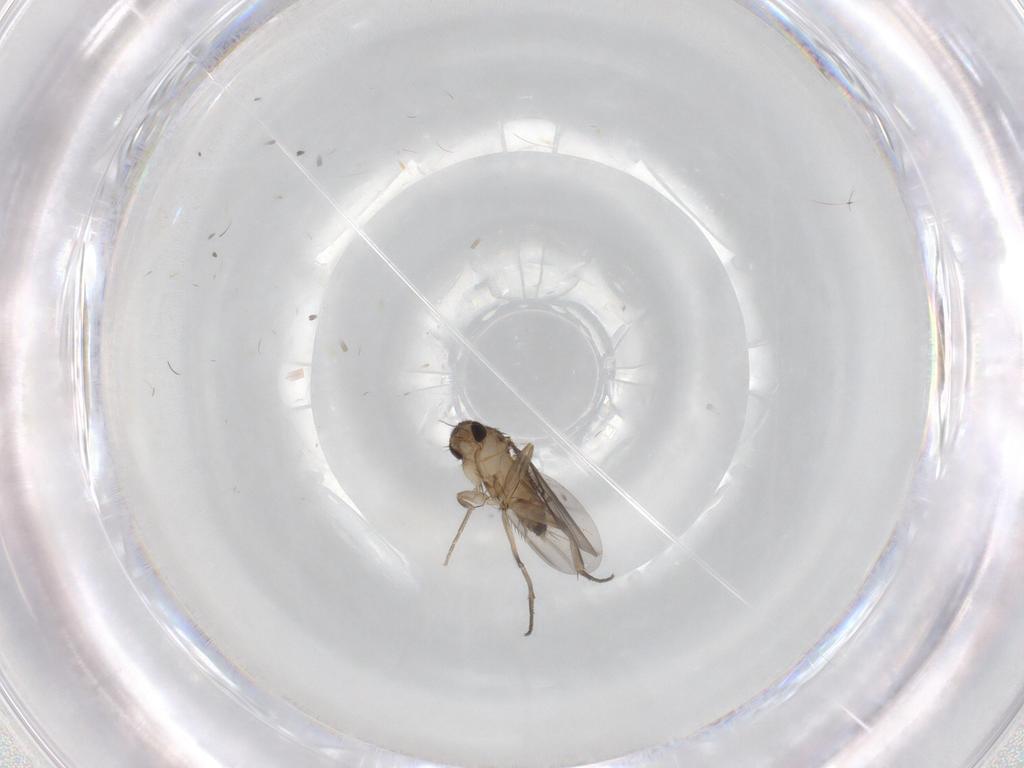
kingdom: Animalia
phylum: Arthropoda
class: Insecta
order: Diptera
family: Phoridae
